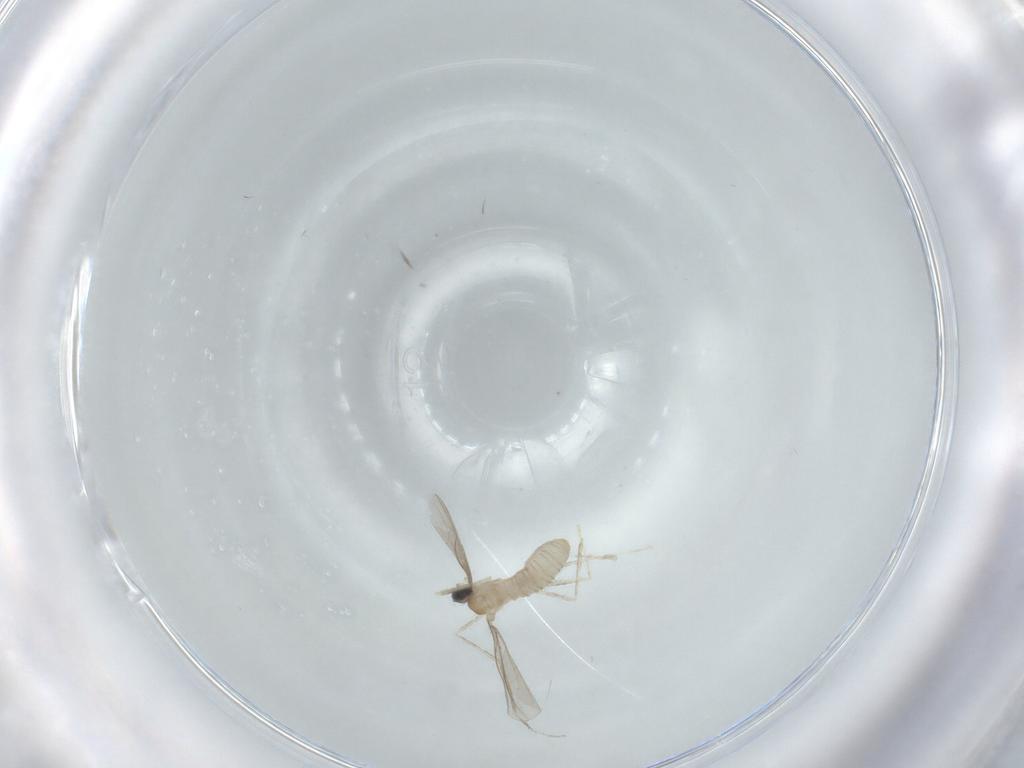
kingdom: Animalia
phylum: Arthropoda
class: Insecta
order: Diptera
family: Cecidomyiidae
